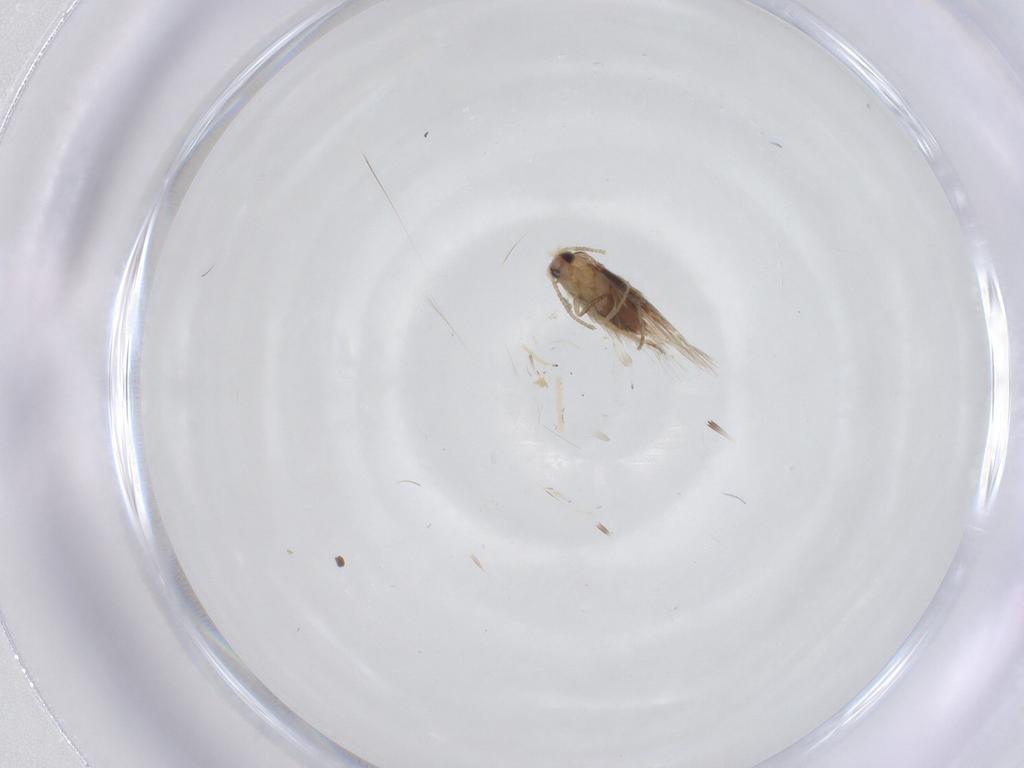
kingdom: Animalia
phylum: Arthropoda
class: Insecta
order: Lepidoptera
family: Nepticulidae
